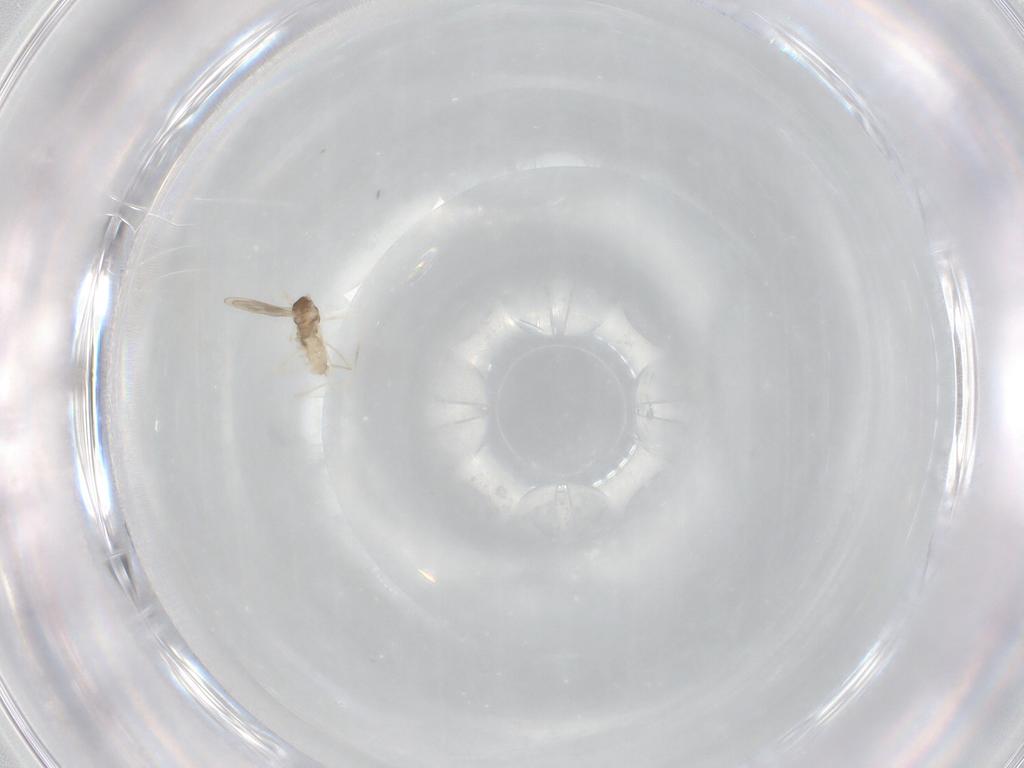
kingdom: Animalia
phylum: Arthropoda
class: Insecta
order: Diptera
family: Cecidomyiidae
